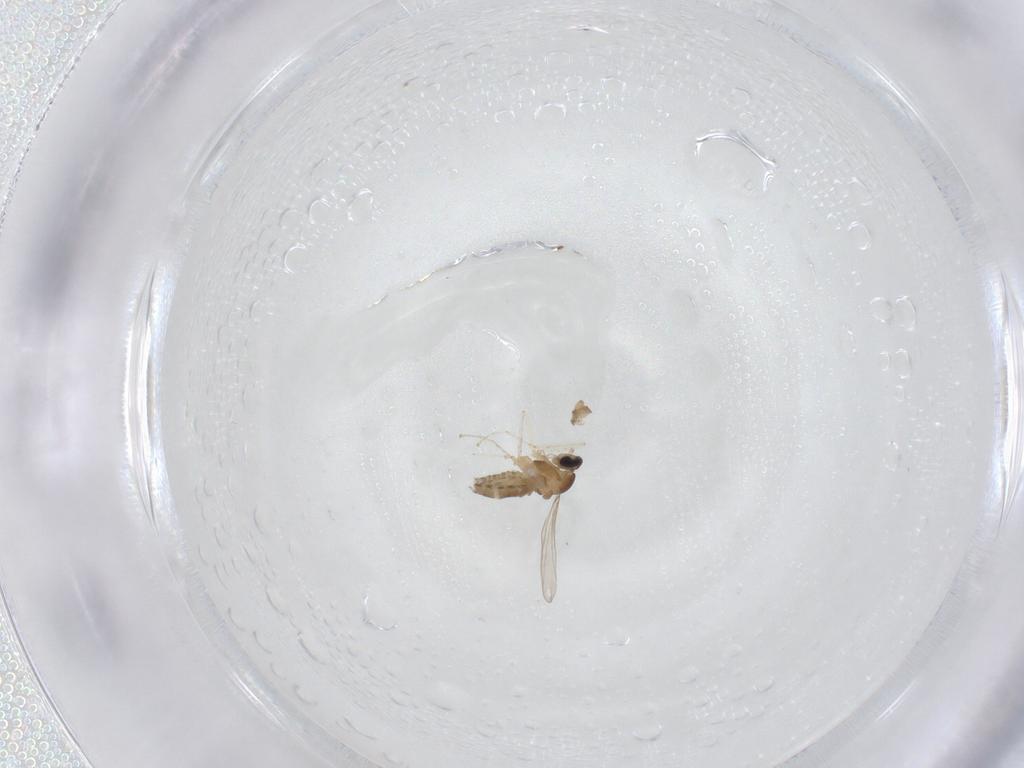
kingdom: Animalia
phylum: Arthropoda
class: Insecta
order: Diptera
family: Cecidomyiidae
